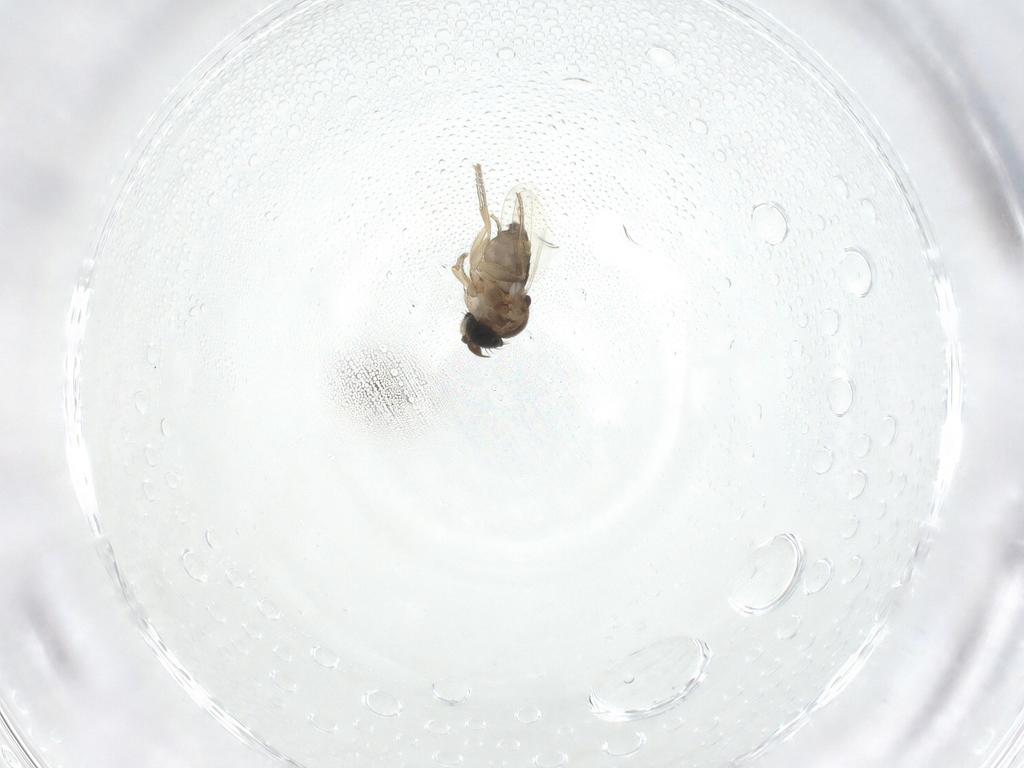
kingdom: Animalia
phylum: Arthropoda
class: Insecta
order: Diptera
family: Phoridae
